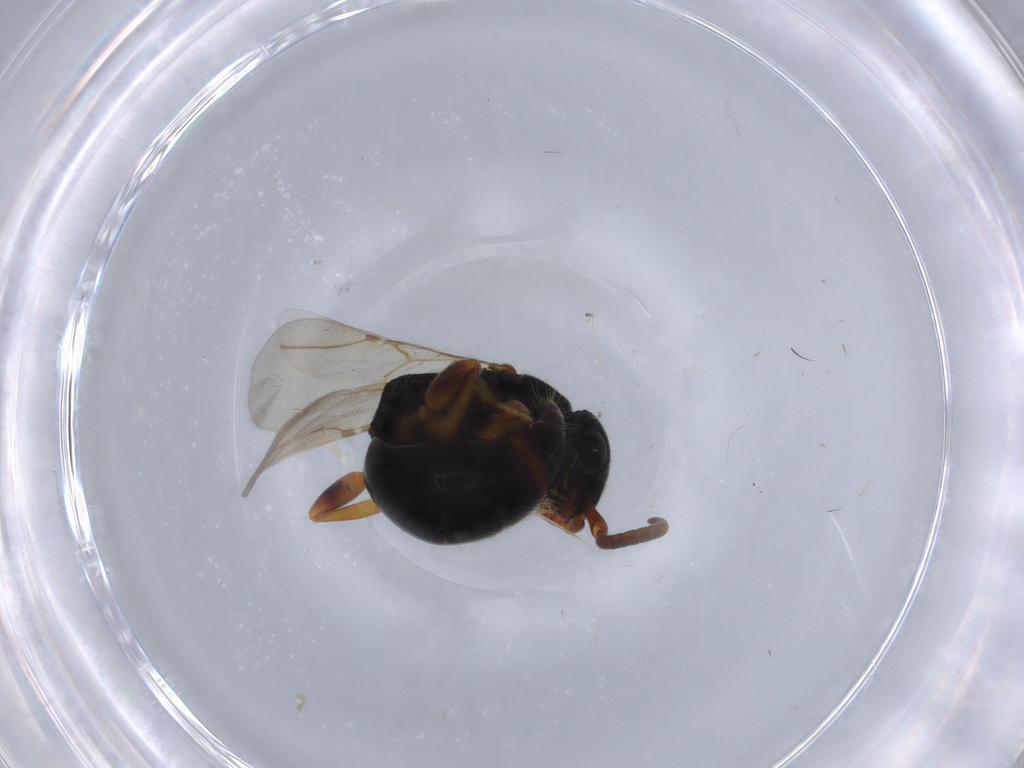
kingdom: Animalia
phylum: Arthropoda
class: Insecta
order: Hymenoptera
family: Bethylidae
